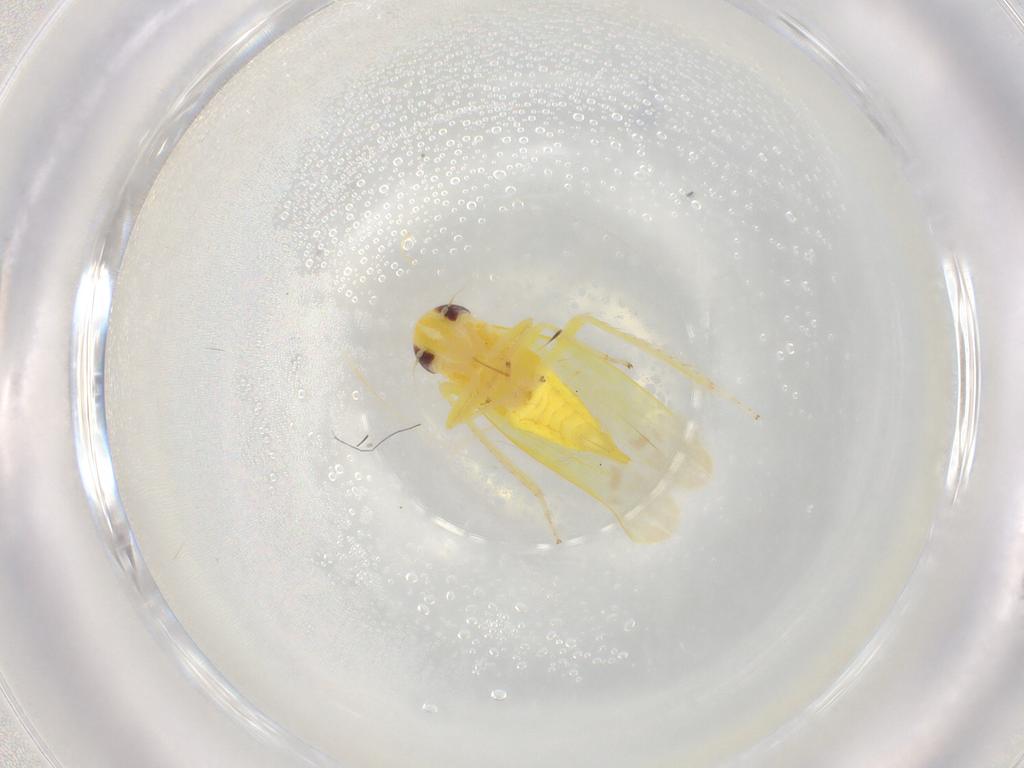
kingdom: Animalia
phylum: Arthropoda
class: Insecta
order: Hemiptera
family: Cicadellidae
